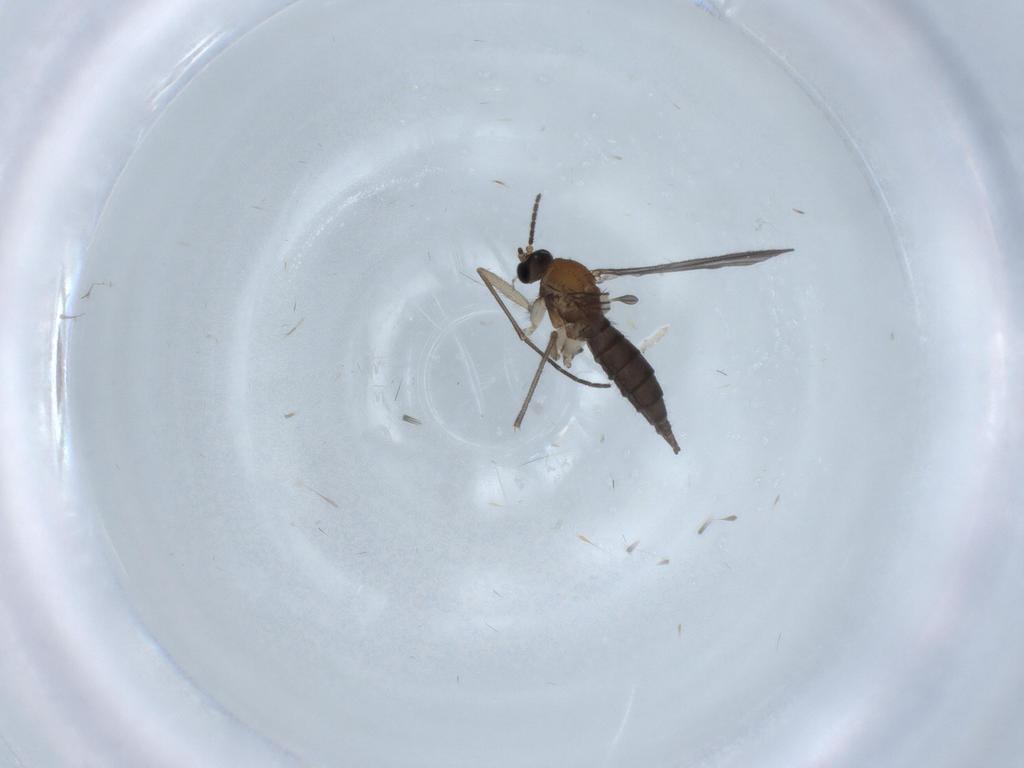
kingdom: Animalia
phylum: Arthropoda
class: Insecta
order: Diptera
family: Sciaridae
